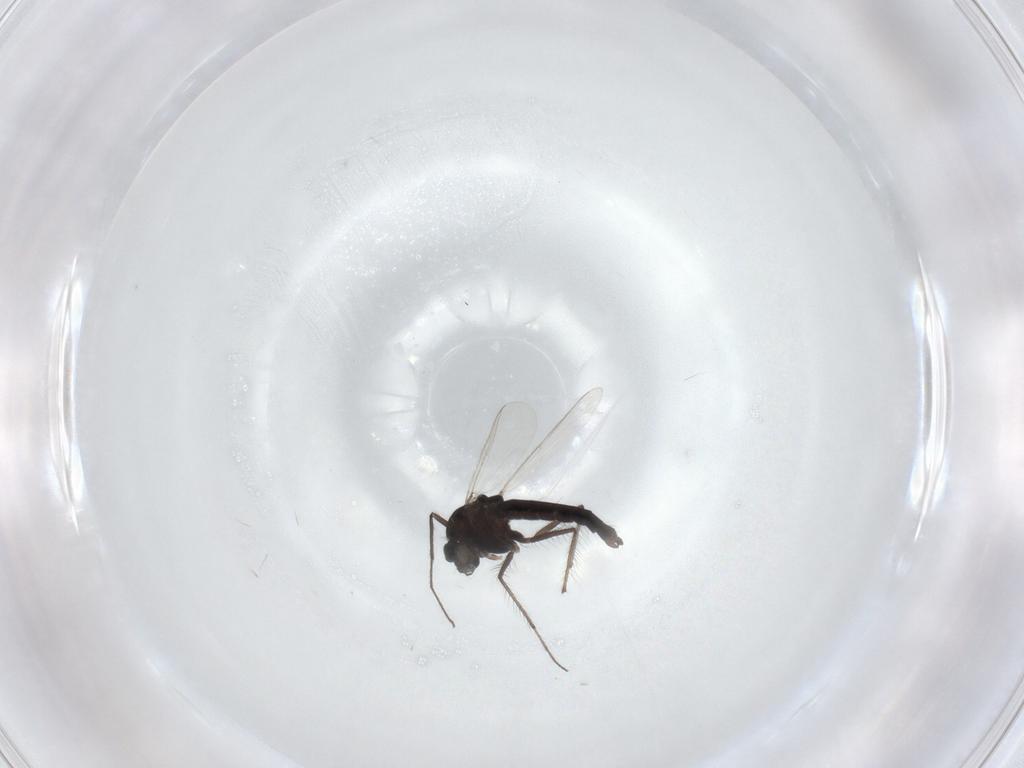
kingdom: Animalia
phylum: Arthropoda
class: Insecta
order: Diptera
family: Chironomidae
